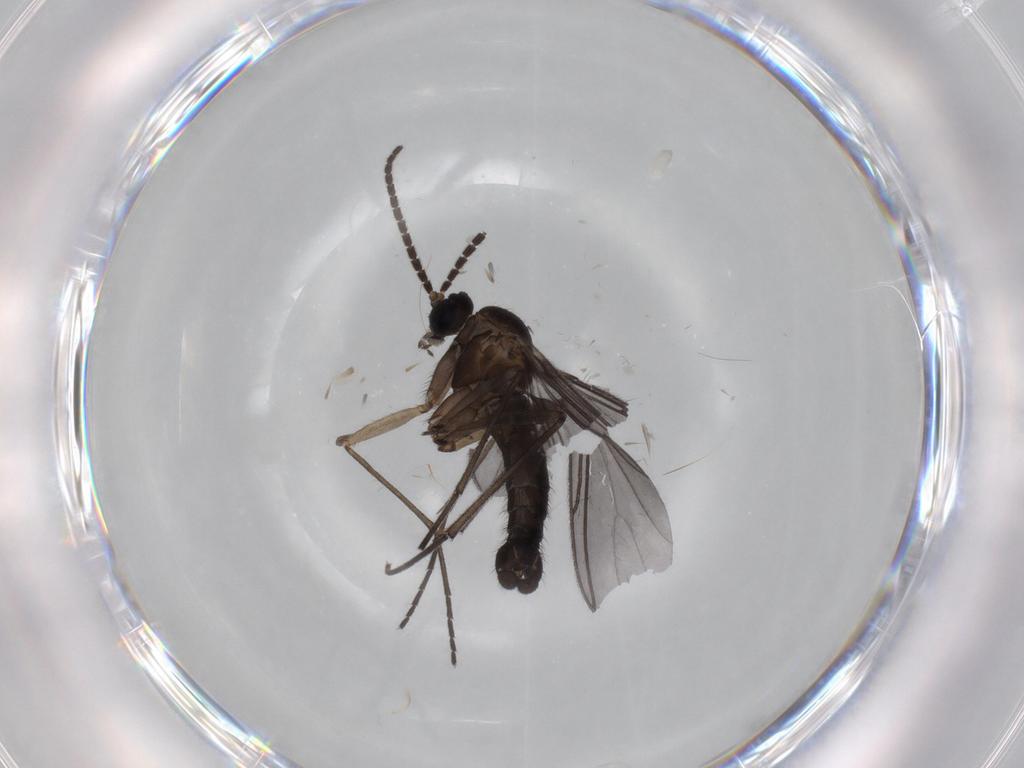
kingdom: Animalia
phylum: Arthropoda
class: Insecta
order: Diptera
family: Sciaridae
